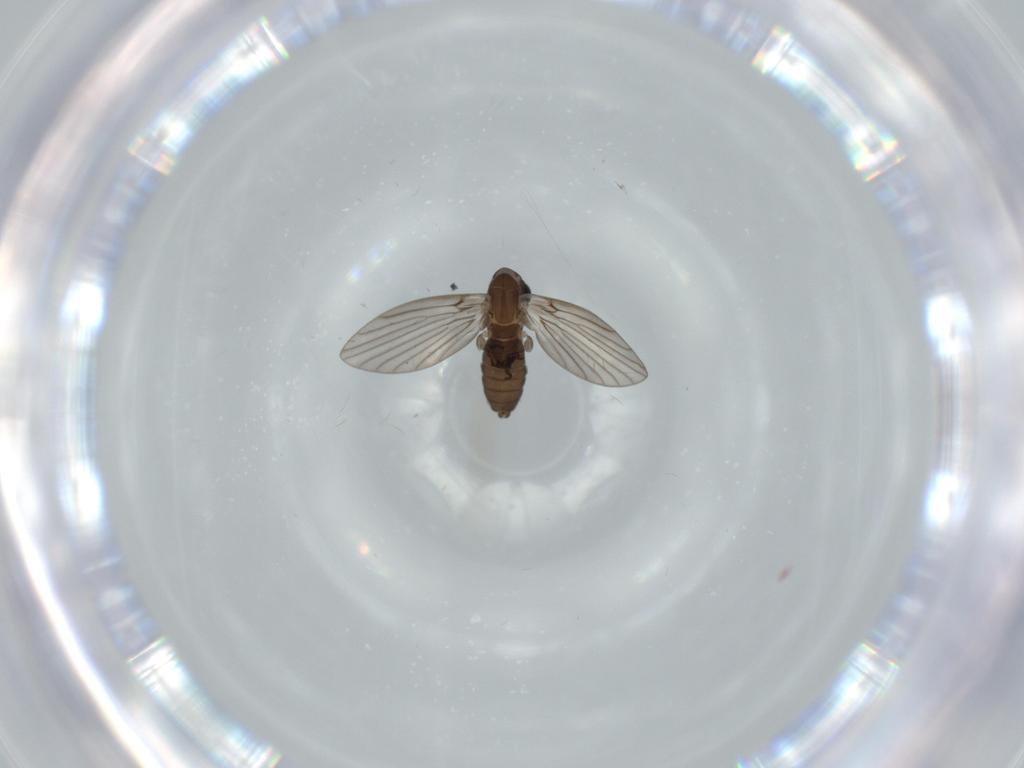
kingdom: Animalia
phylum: Arthropoda
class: Insecta
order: Diptera
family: Psychodidae
